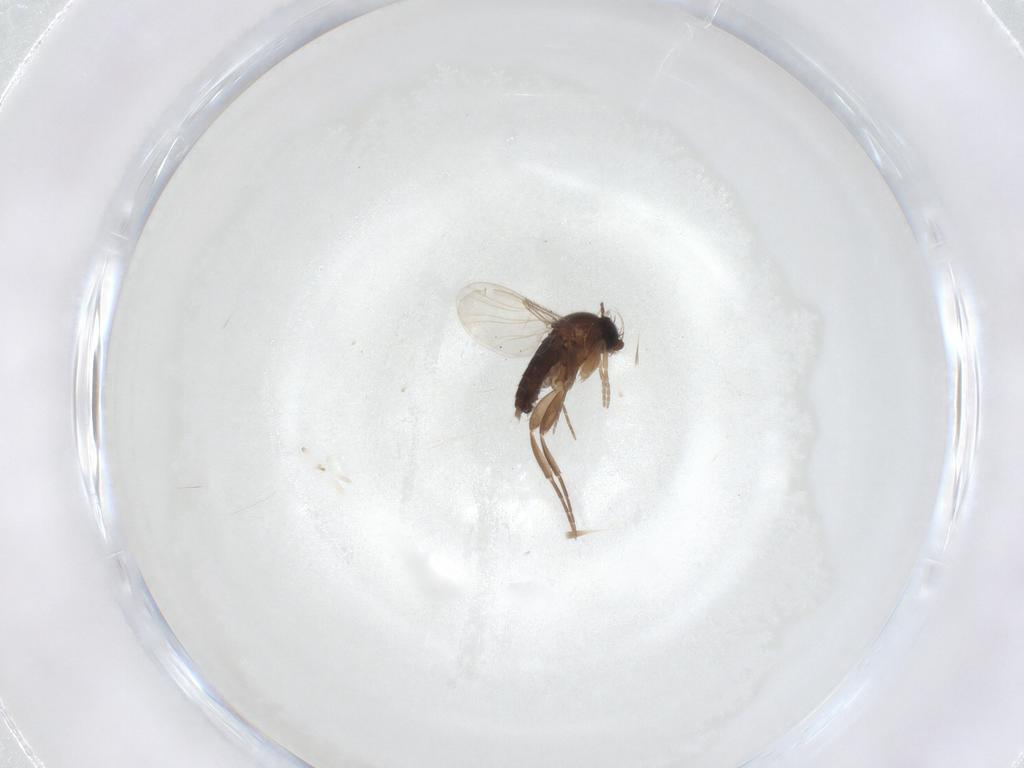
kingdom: Animalia
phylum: Arthropoda
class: Insecta
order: Diptera
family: Phoridae
